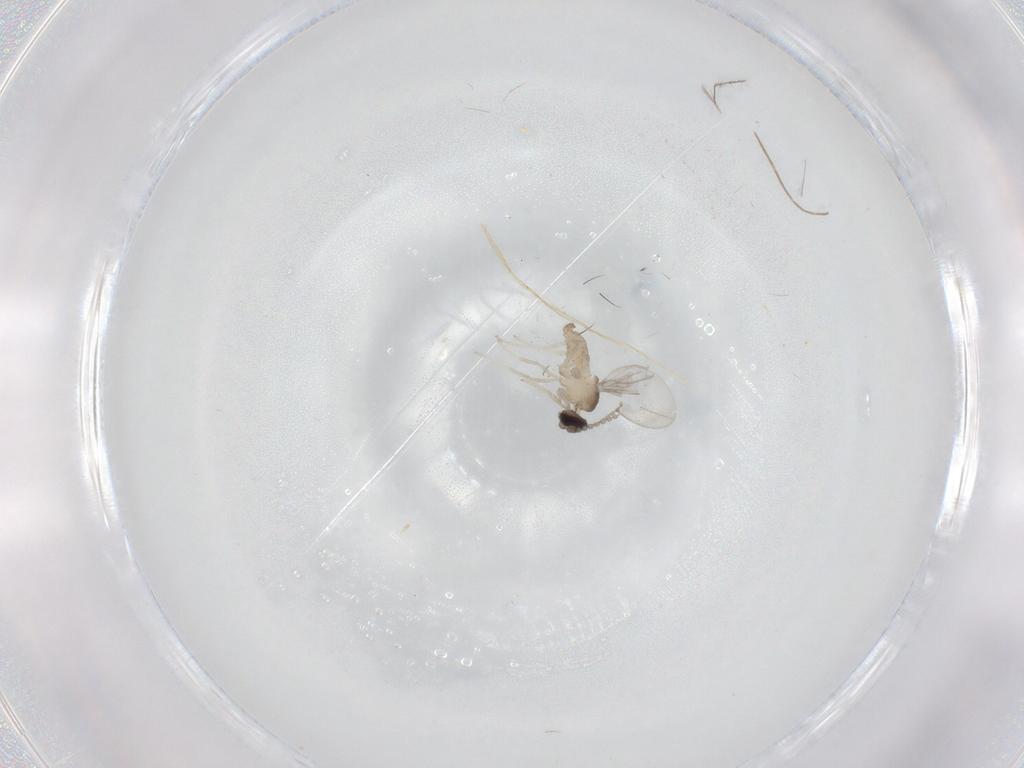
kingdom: Animalia
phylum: Arthropoda
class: Insecta
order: Diptera
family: Cecidomyiidae
